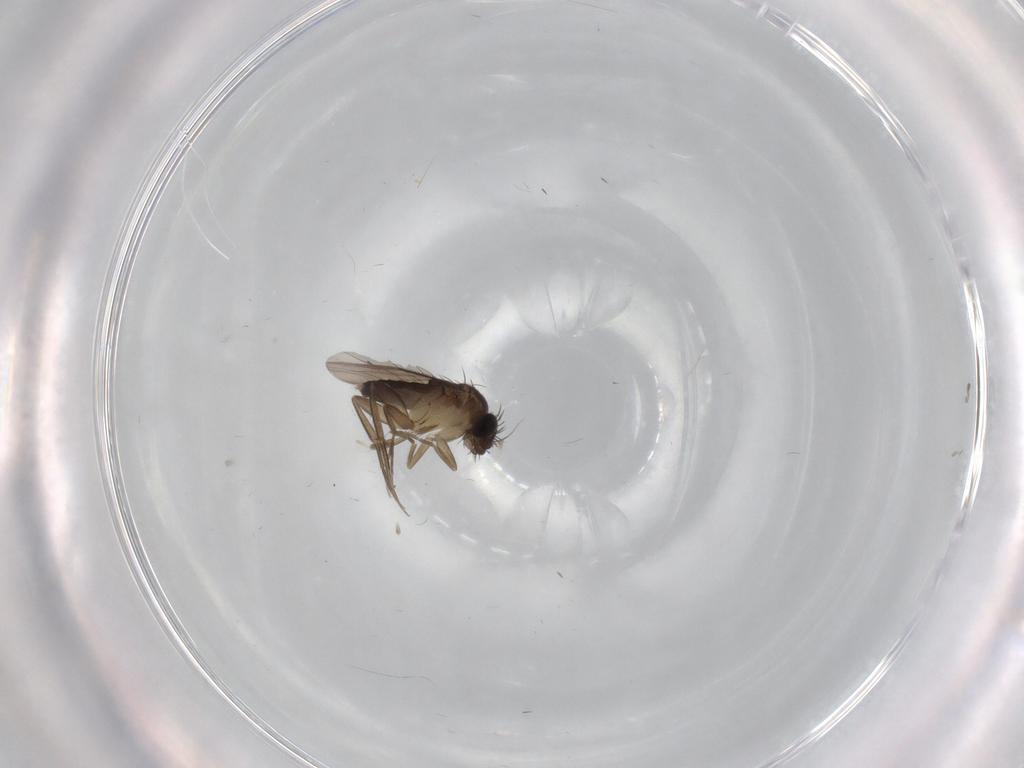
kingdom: Animalia
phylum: Arthropoda
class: Insecta
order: Diptera
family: Phoridae
